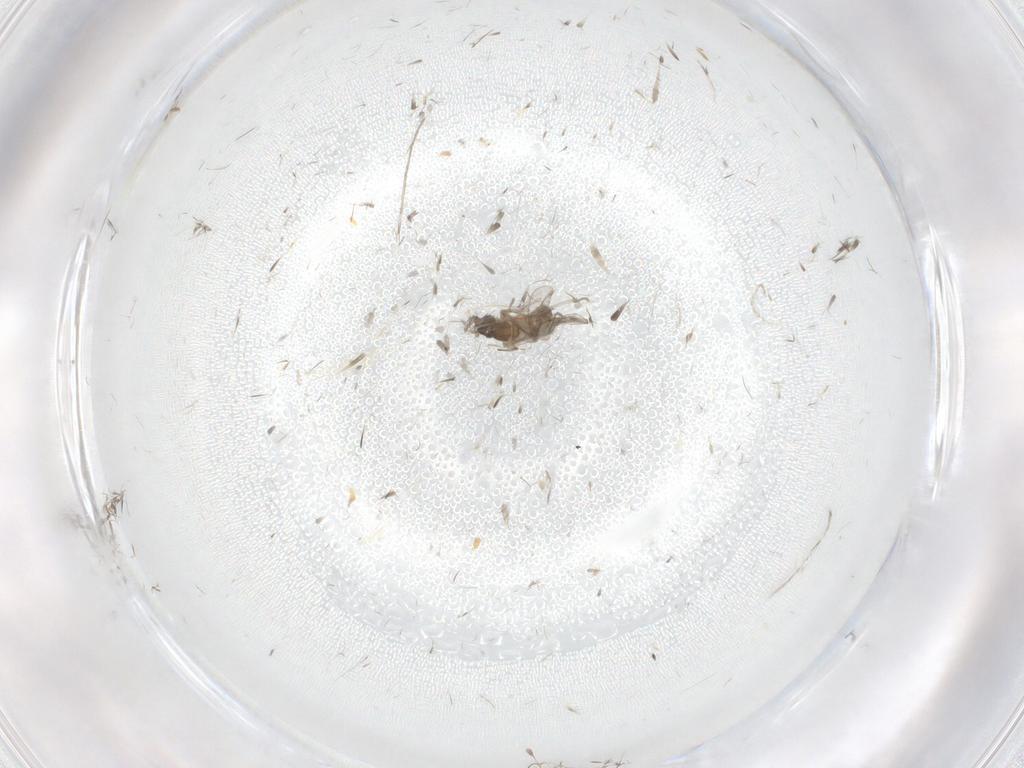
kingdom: Animalia
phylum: Arthropoda
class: Insecta
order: Diptera
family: Cecidomyiidae
